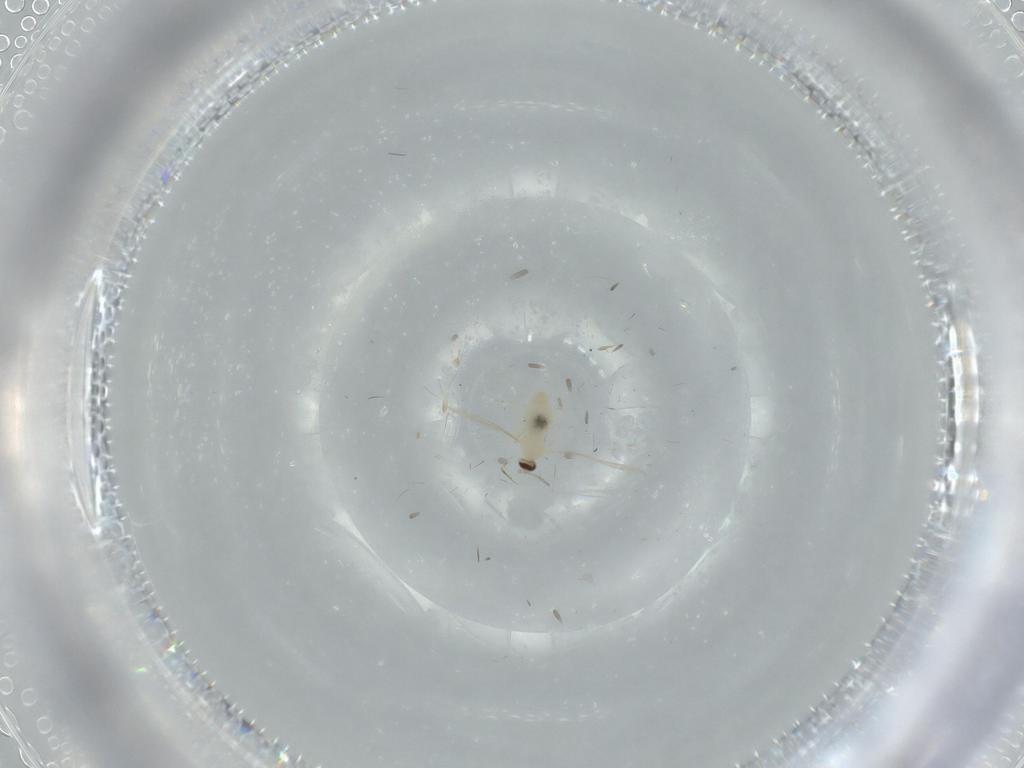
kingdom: Animalia
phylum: Arthropoda
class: Insecta
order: Diptera
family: Cecidomyiidae
